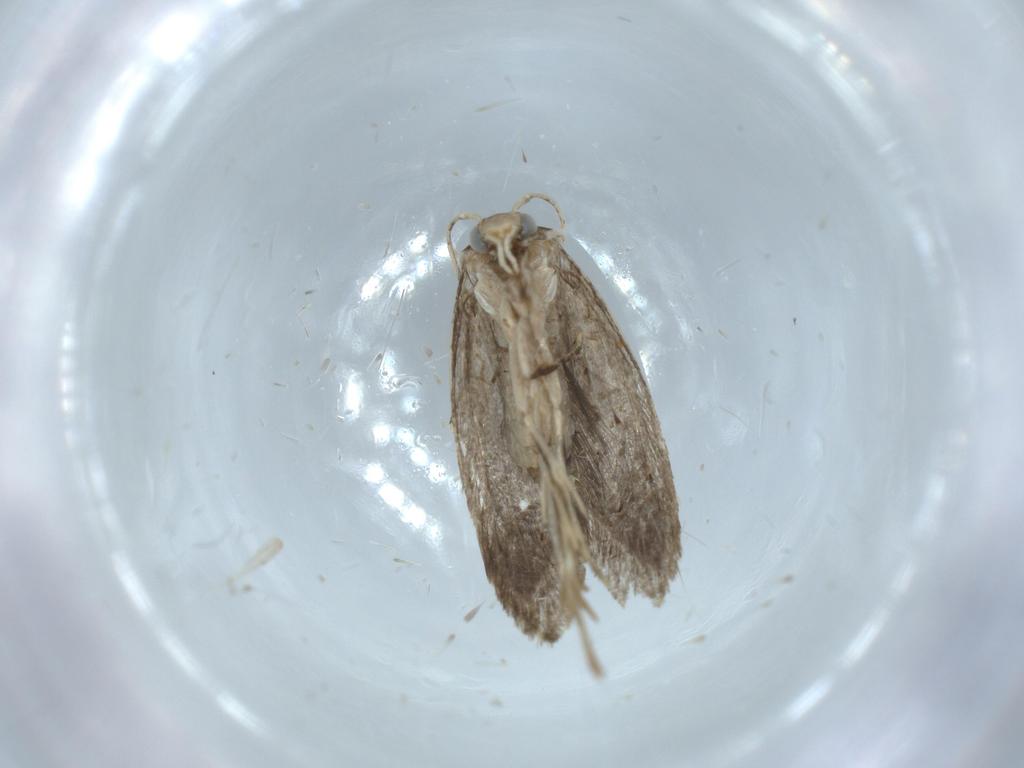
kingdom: Animalia
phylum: Arthropoda
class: Insecta
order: Lepidoptera
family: Tineidae
